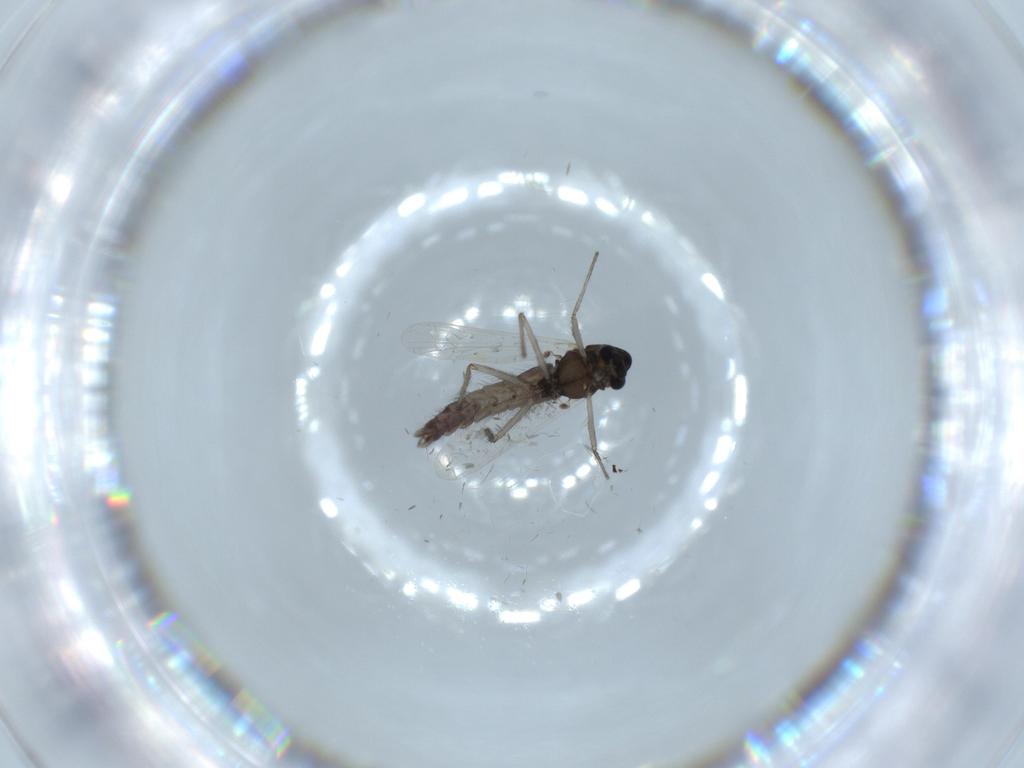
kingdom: Animalia
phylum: Arthropoda
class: Insecta
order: Diptera
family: Chironomidae
